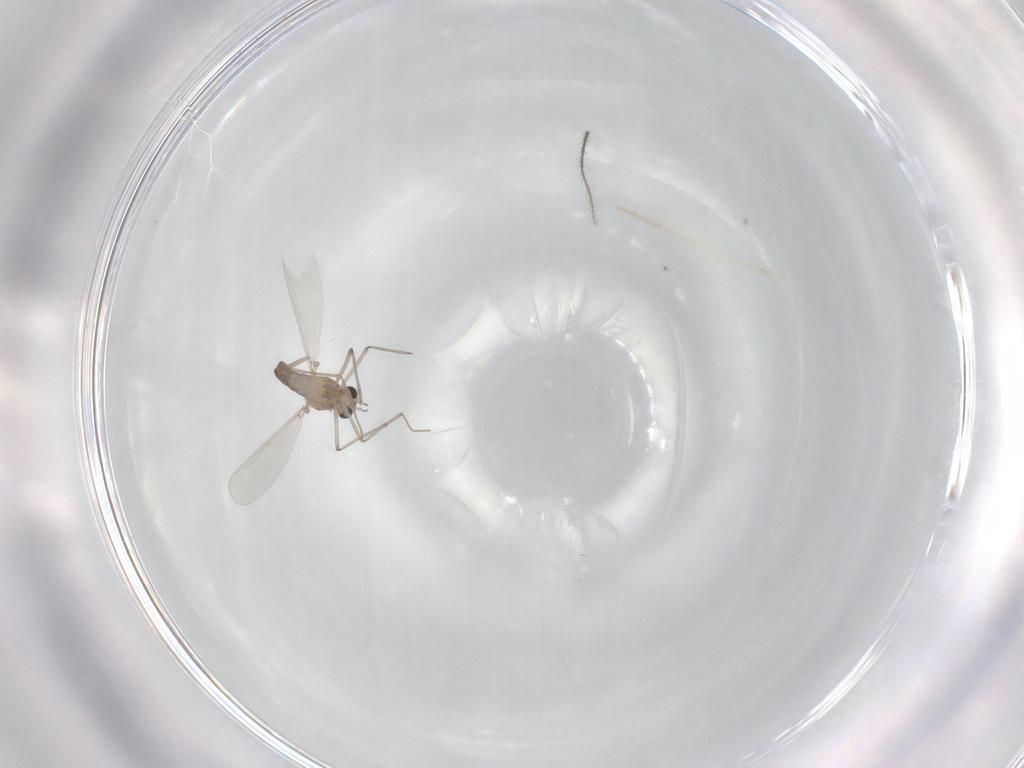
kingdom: Animalia
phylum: Arthropoda
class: Insecta
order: Diptera
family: Chironomidae
